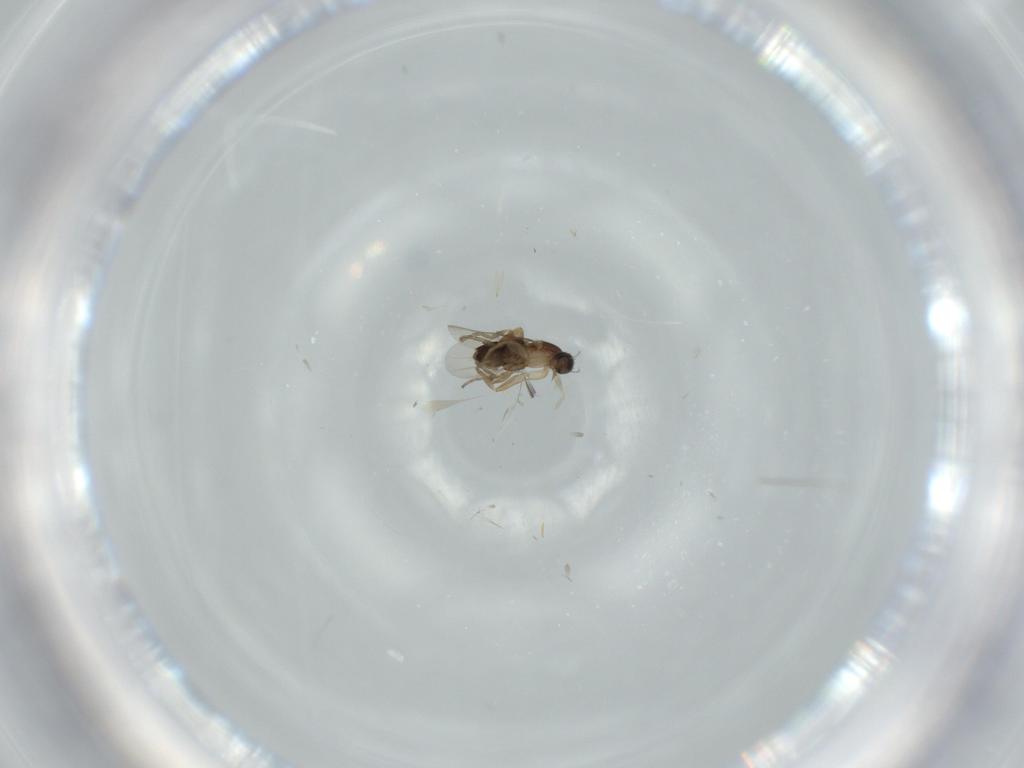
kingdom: Animalia
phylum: Arthropoda
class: Insecta
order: Diptera
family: Phoridae
